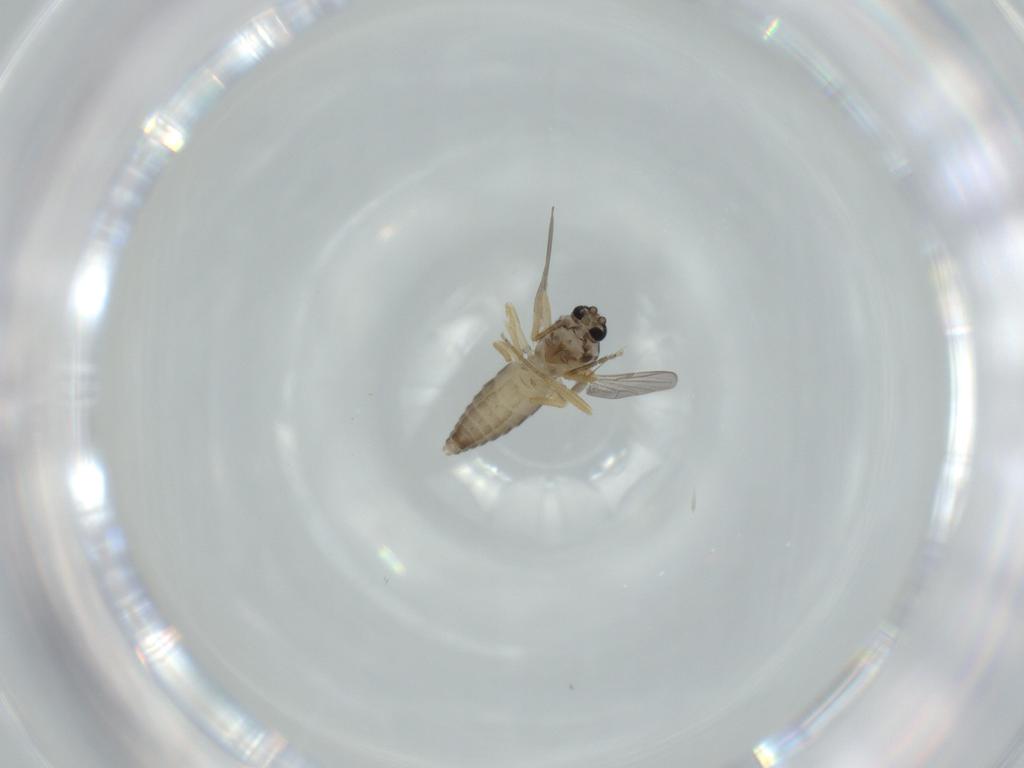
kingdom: Animalia
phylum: Arthropoda
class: Insecta
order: Diptera
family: Ceratopogonidae
